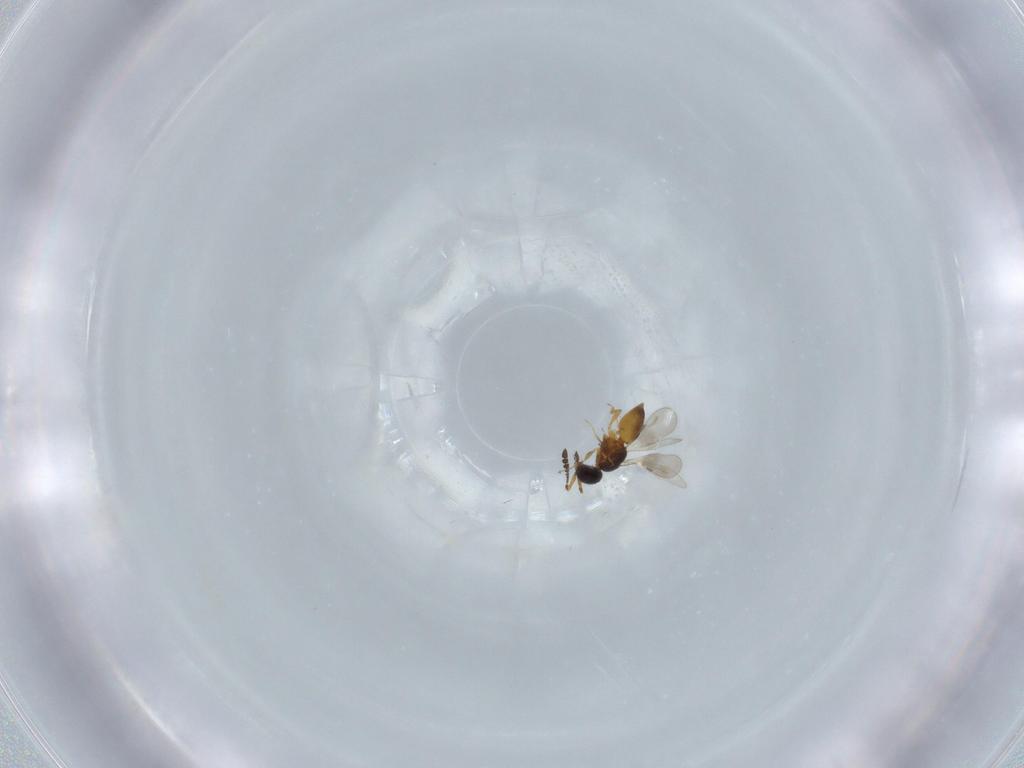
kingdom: Animalia
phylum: Arthropoda
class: Insecta
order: Hymenoptera
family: Ceraphronidae
